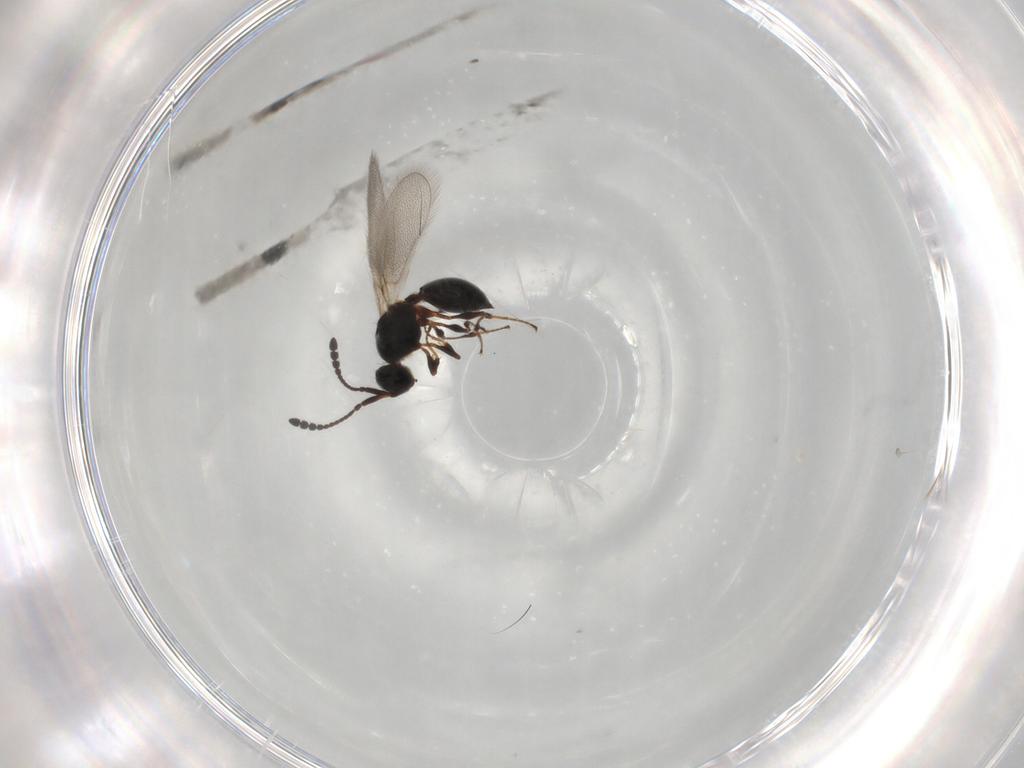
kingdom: Animalia
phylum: Arthropoda
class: Insecta
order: Hymenoptera
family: Diapriidae
